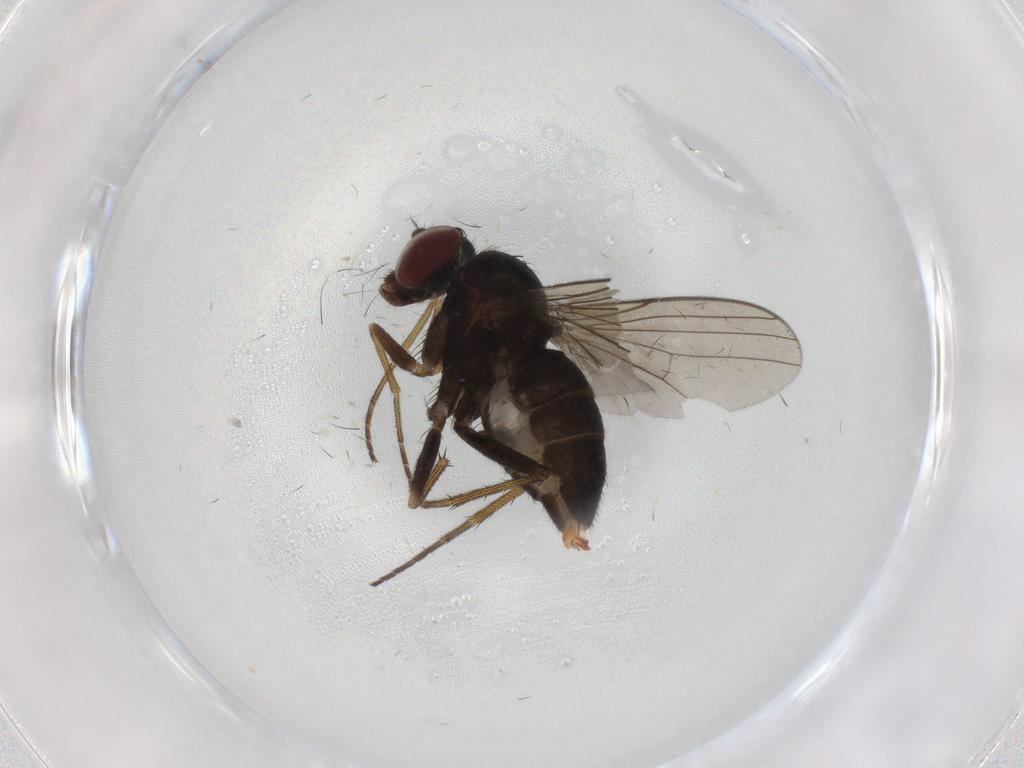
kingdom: Animalia
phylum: Arthropoda
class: Insecta
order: Diptera
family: Dolichopodidae
